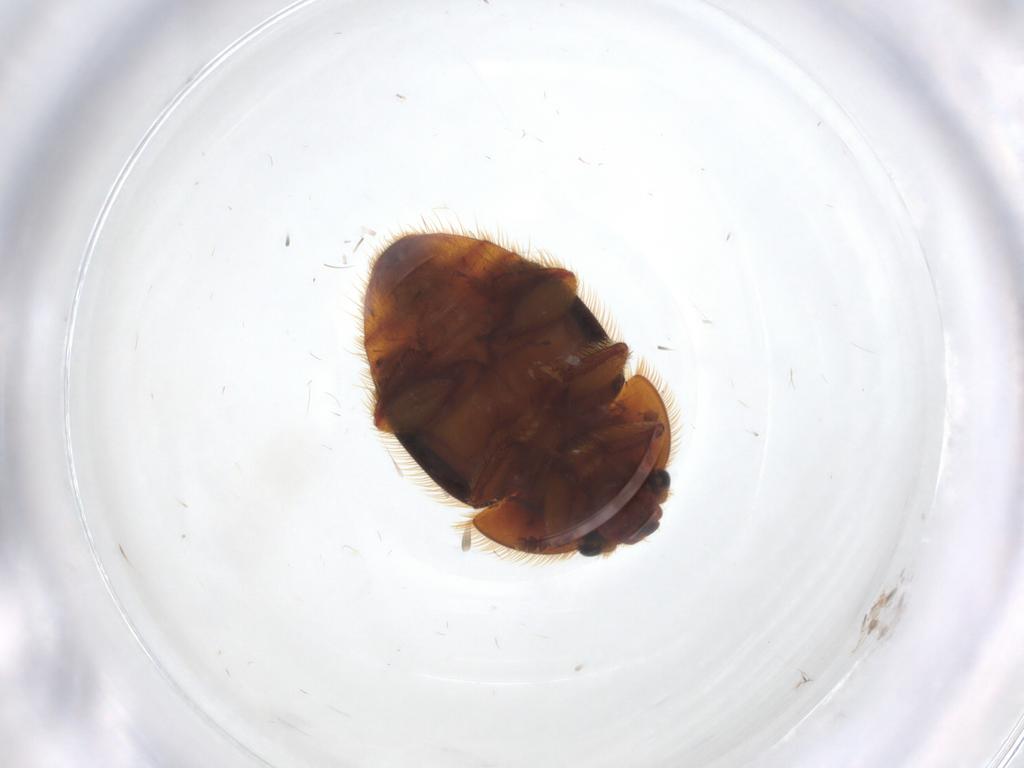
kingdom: Animalia
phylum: Arthropoda
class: Insecta
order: Coleoptera
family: Nitidulidae
